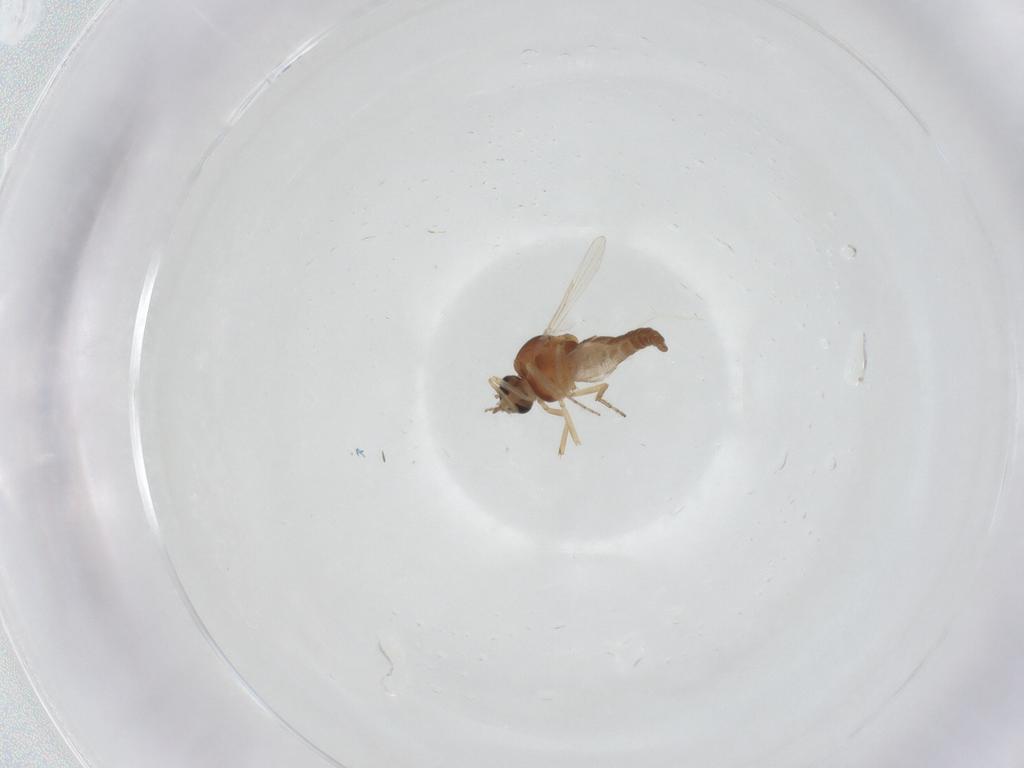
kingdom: Animalia
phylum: Arthropoda
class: Insecta
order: Diptera
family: Ceratopogonidae
